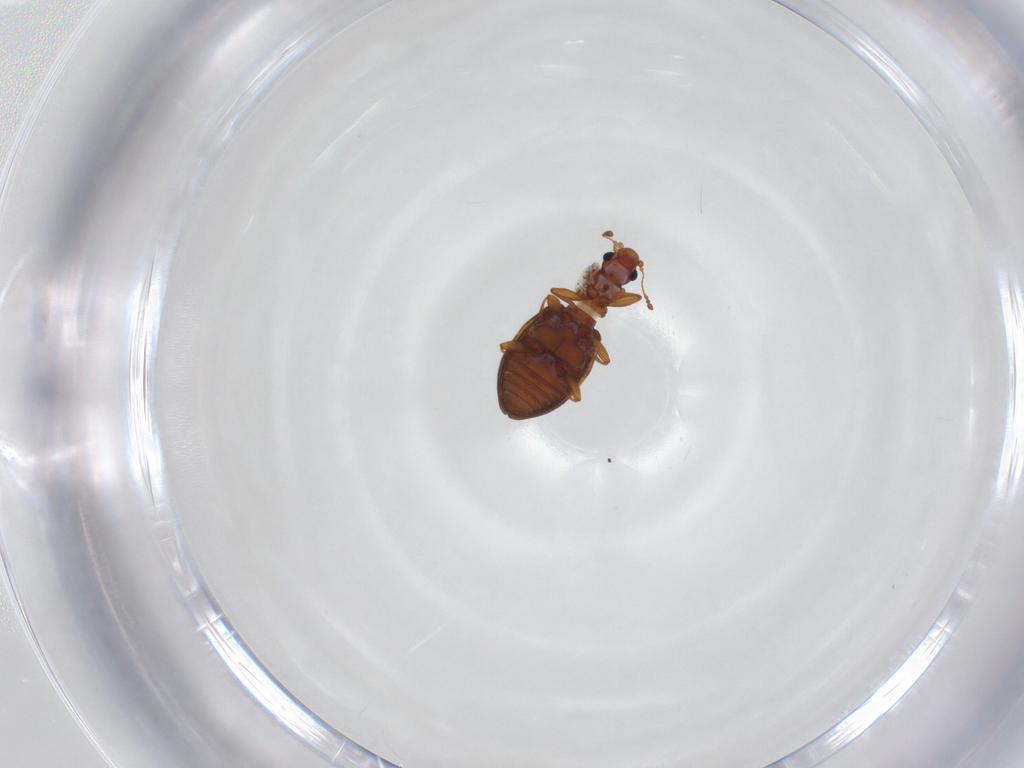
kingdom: Animalia
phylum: Arthropoda
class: Insecta
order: Coleoptera
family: Latridiidae
